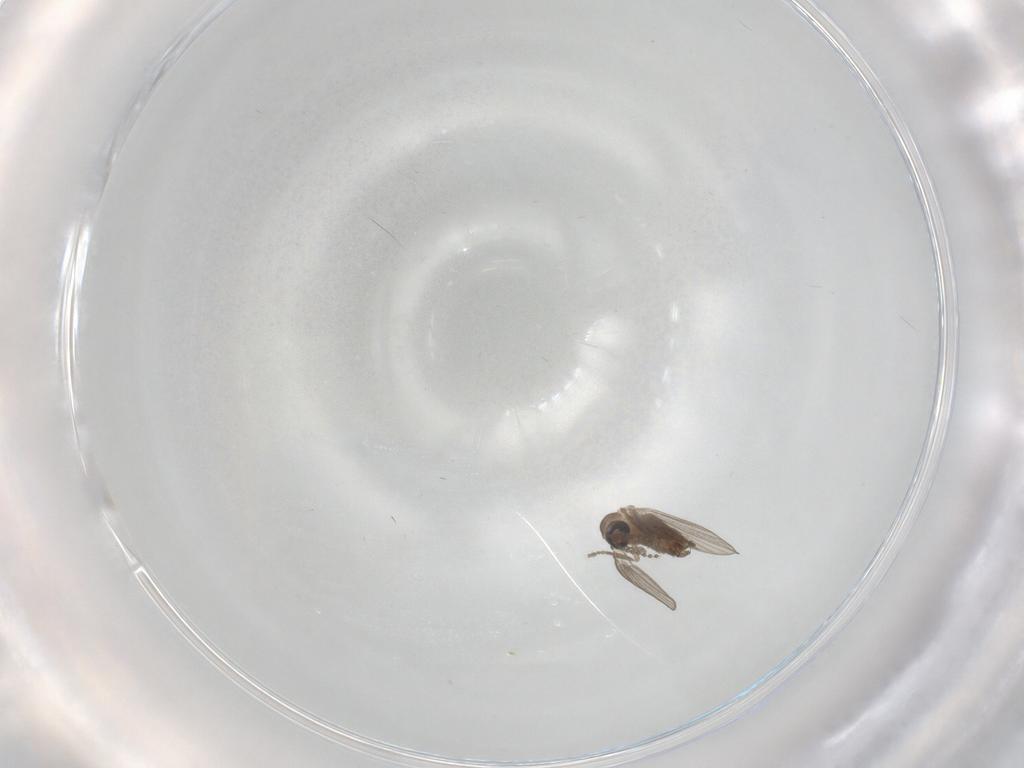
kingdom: Animalia
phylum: Arthropoda
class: Insecta
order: Diptera
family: Psychodidae
